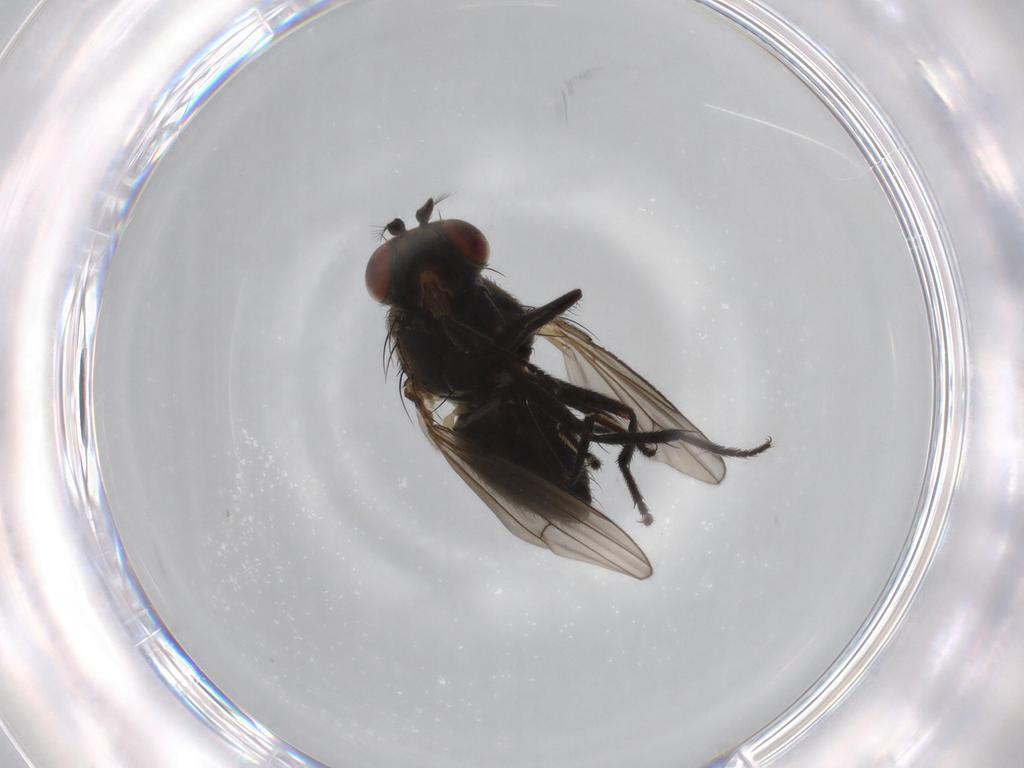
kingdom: Animalia
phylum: Arthropoda
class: Insecta
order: Diptera
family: Ephydridae
